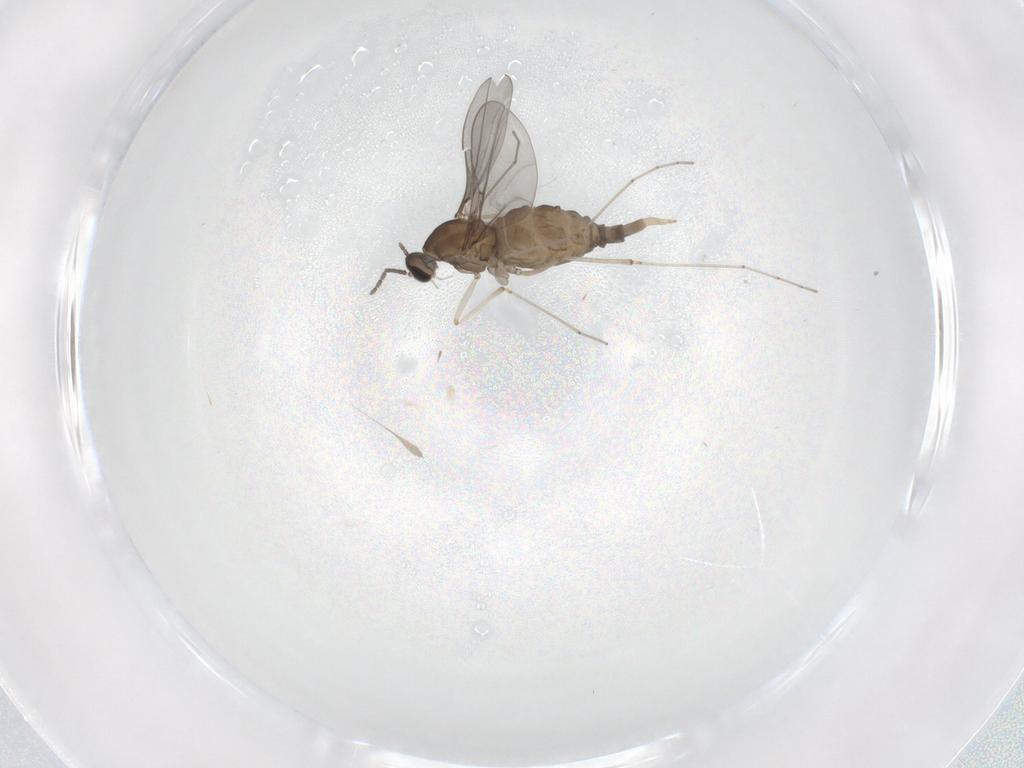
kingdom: Animalia
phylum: Arthropoda
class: Insecta
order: Diptera
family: Cecidomyiidae
